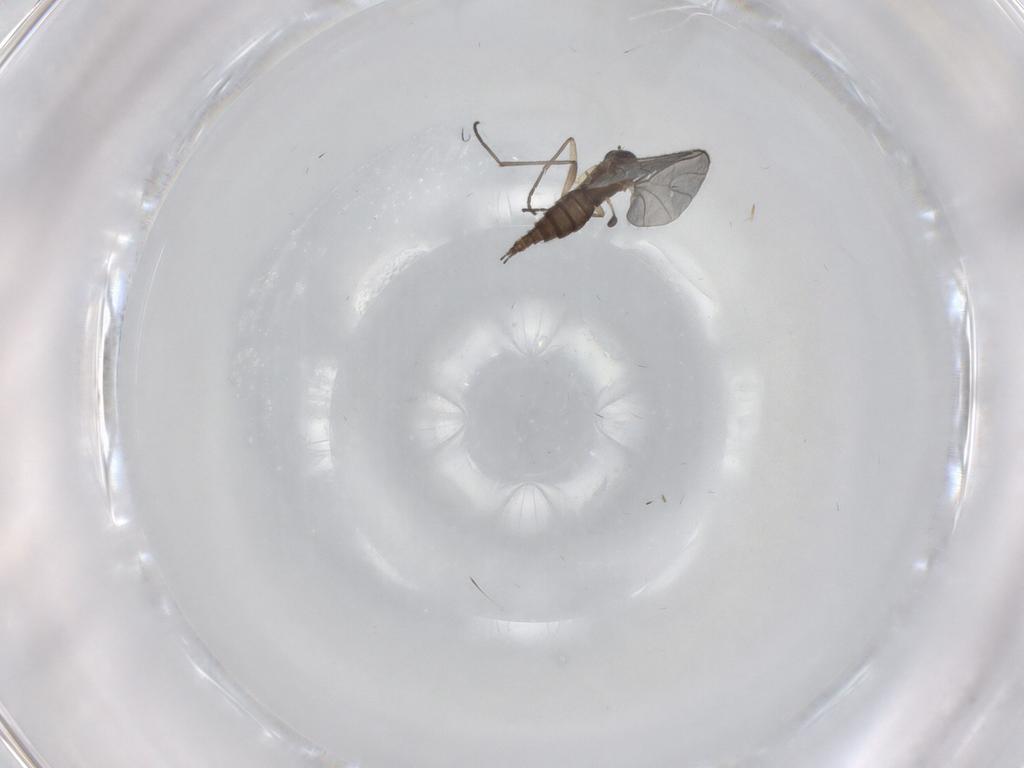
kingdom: Animalia
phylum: Arthropoda
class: Insecta
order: Diptera
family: Sciaridae
